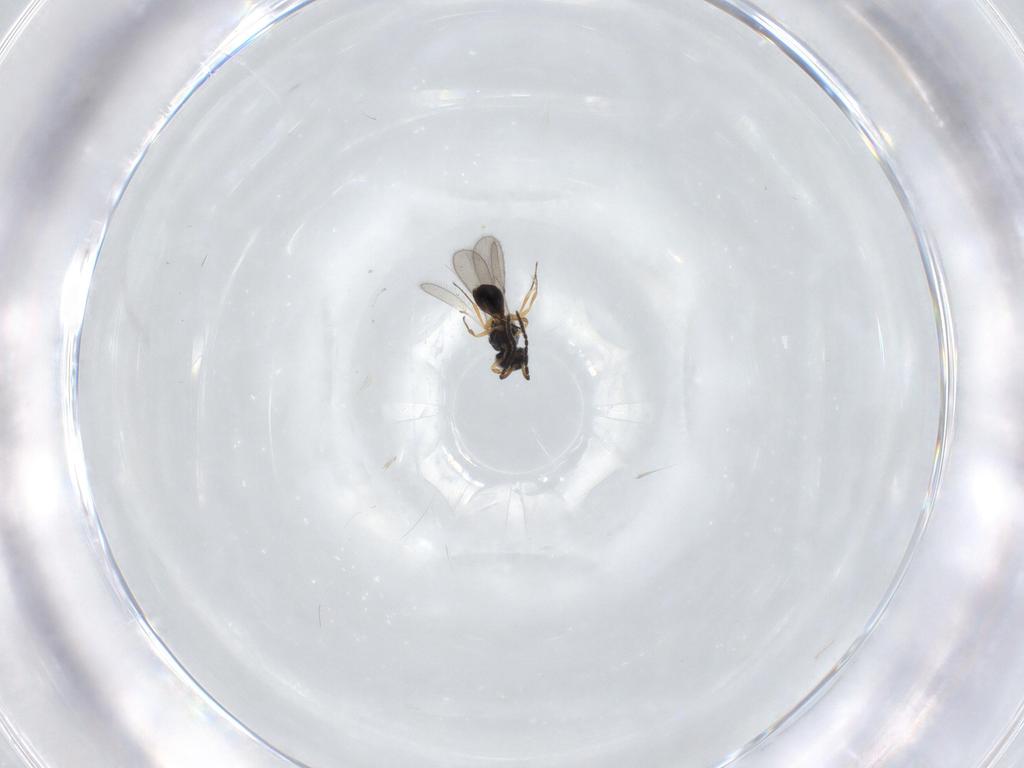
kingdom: Animalia
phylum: Arthropoda
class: Insecta
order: Hymenoptera
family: Scelionidae
